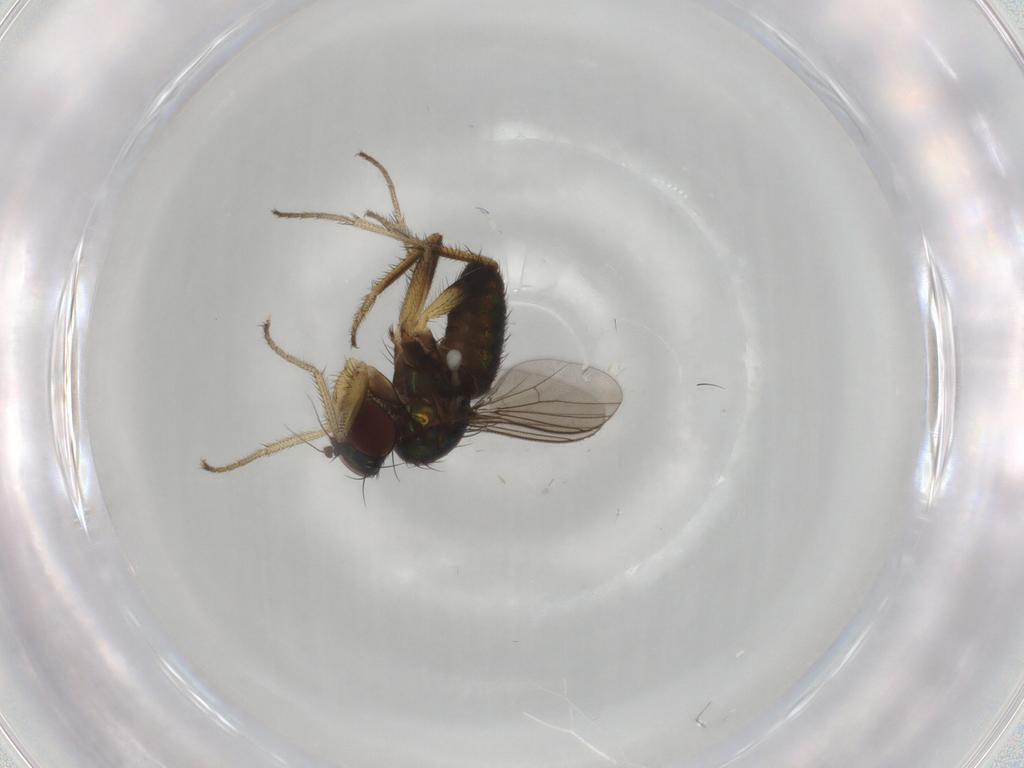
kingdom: Animalia
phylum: Arthropoda
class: Insecta
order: Diptera
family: Dolichopodidae
